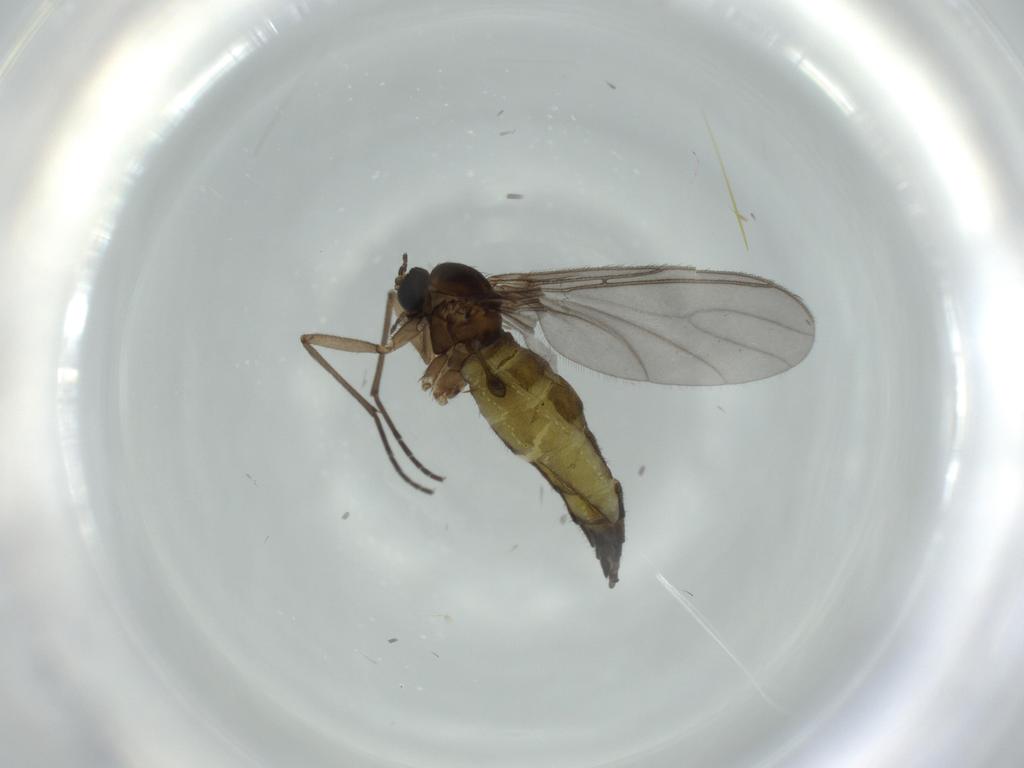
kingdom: Animalia
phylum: Arthropoda
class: Insecta
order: Diptera
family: Sciaridae
